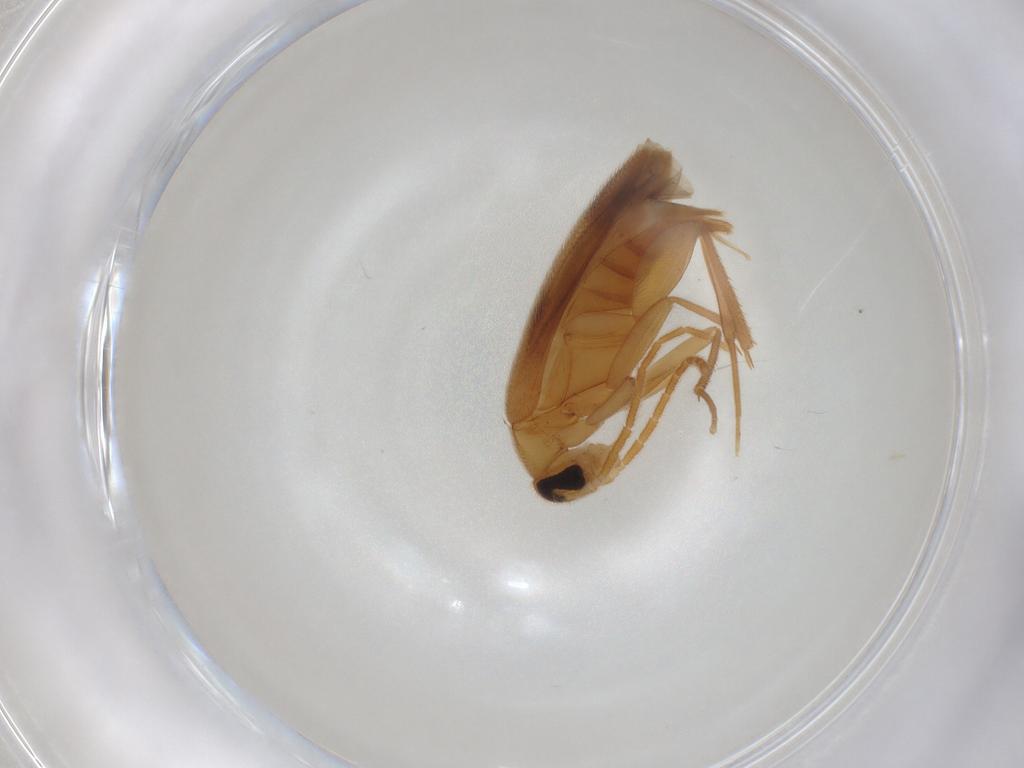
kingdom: Animalia
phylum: Arthropoda
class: Insecta
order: Coleoptera
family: Scraptiidae
